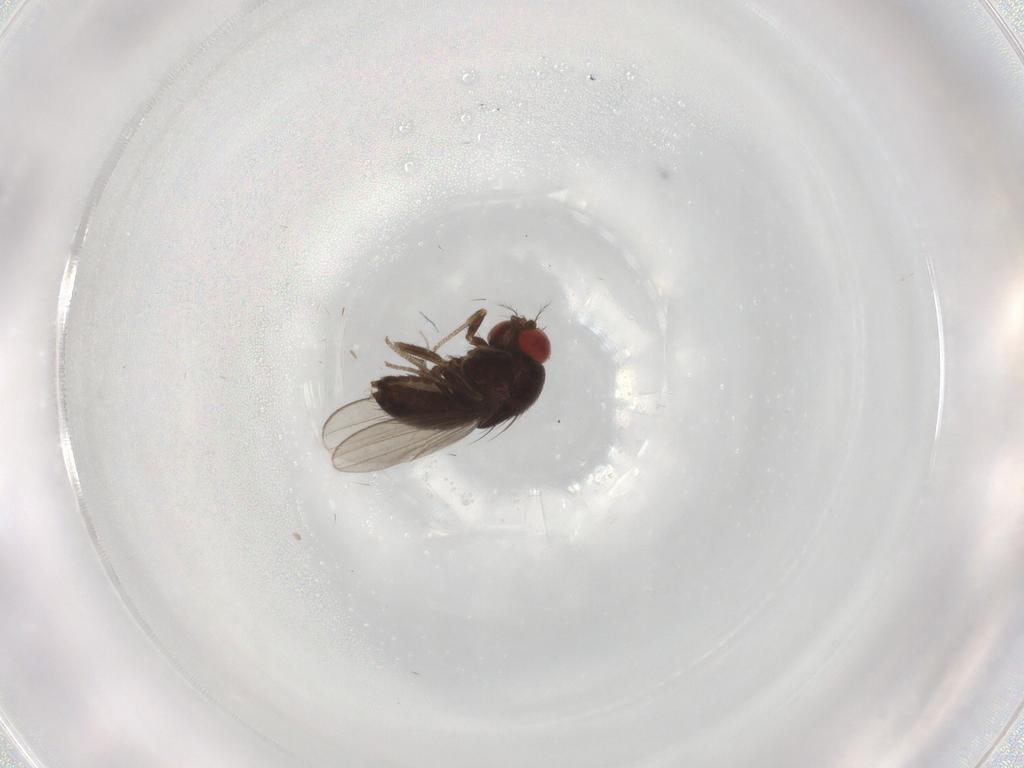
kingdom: Animalia
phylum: Arthropoda
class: Insecta
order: Diptera
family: Drosophilidae
